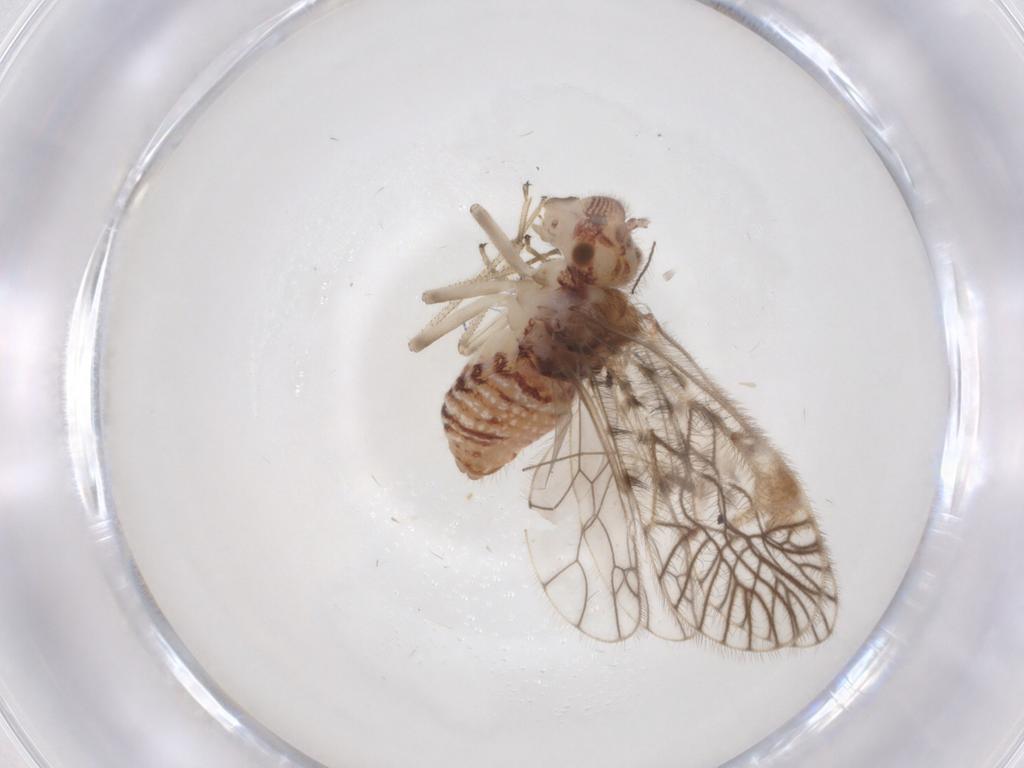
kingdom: Animalia
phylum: Arthropoda
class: Insecta
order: Psocodea
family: Amphipsocidae
